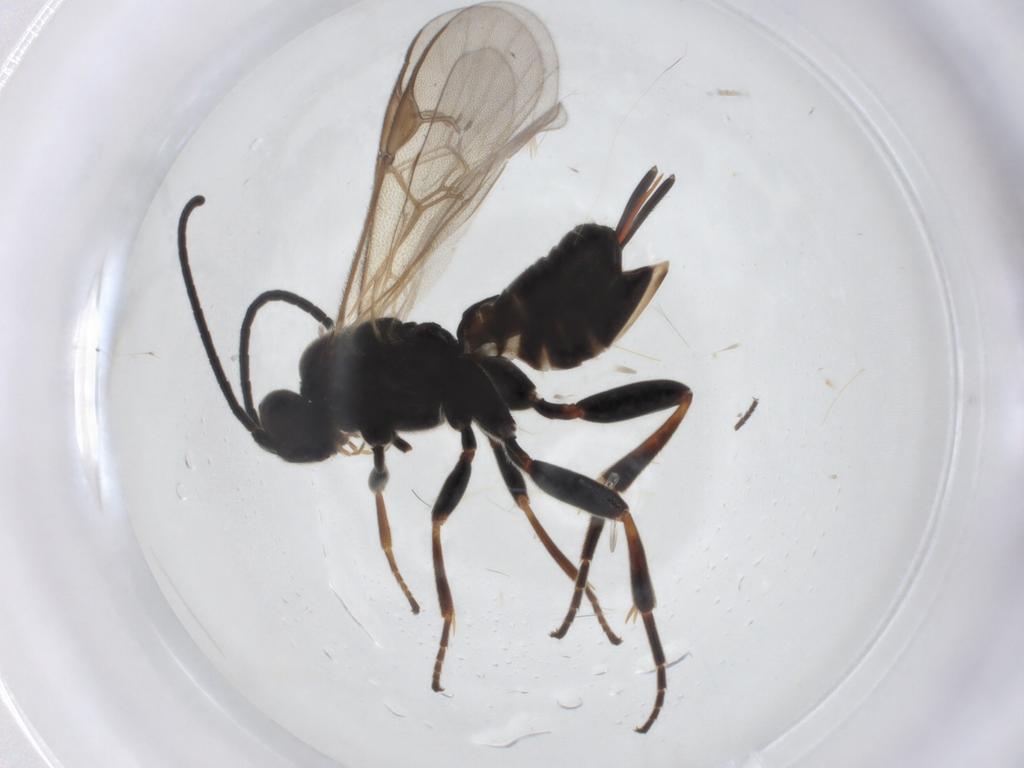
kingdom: Animalia
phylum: Arthropoda
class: Insecta
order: Hymenoptera
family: Braconidae
